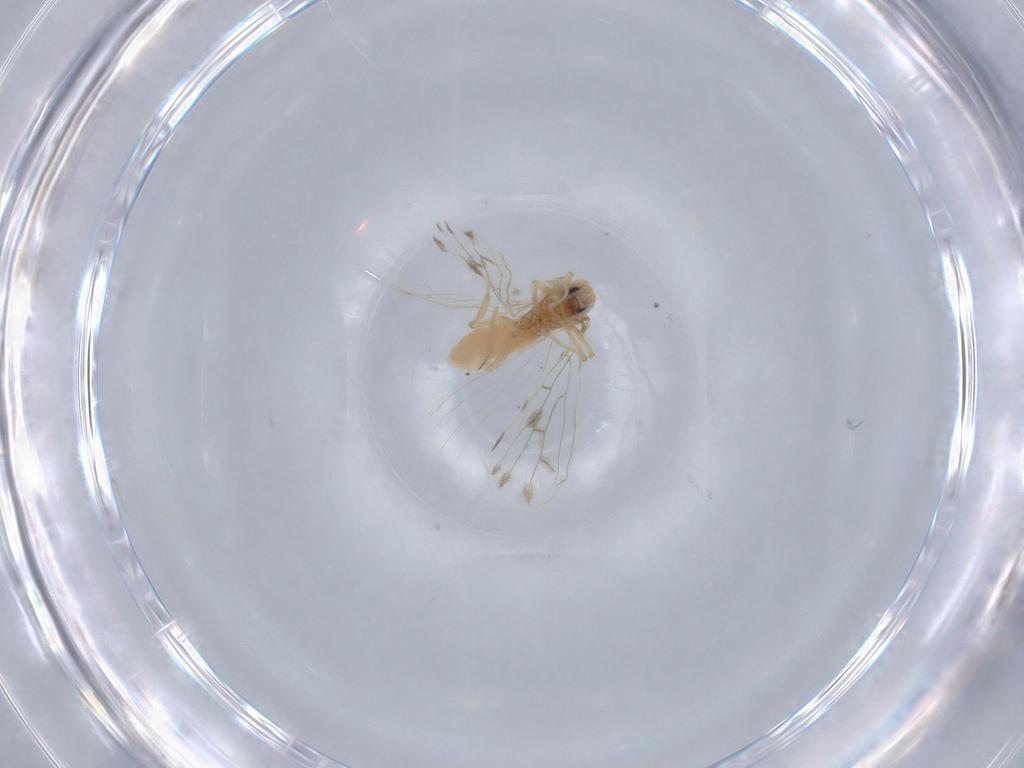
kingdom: Animalia
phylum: Arthropoda
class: Insecta
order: Neuroptera
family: Coniopterygidae
